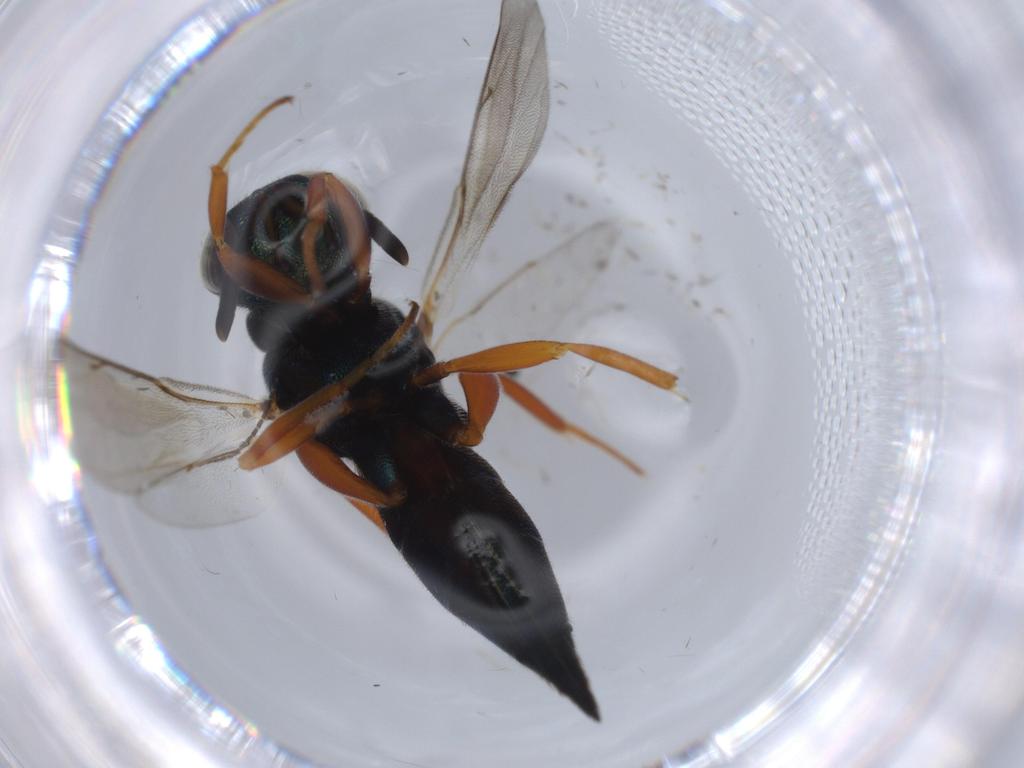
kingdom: Animalia
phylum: Arthropoda
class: Insecta
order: Hymenoptera
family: Lyciscidae
